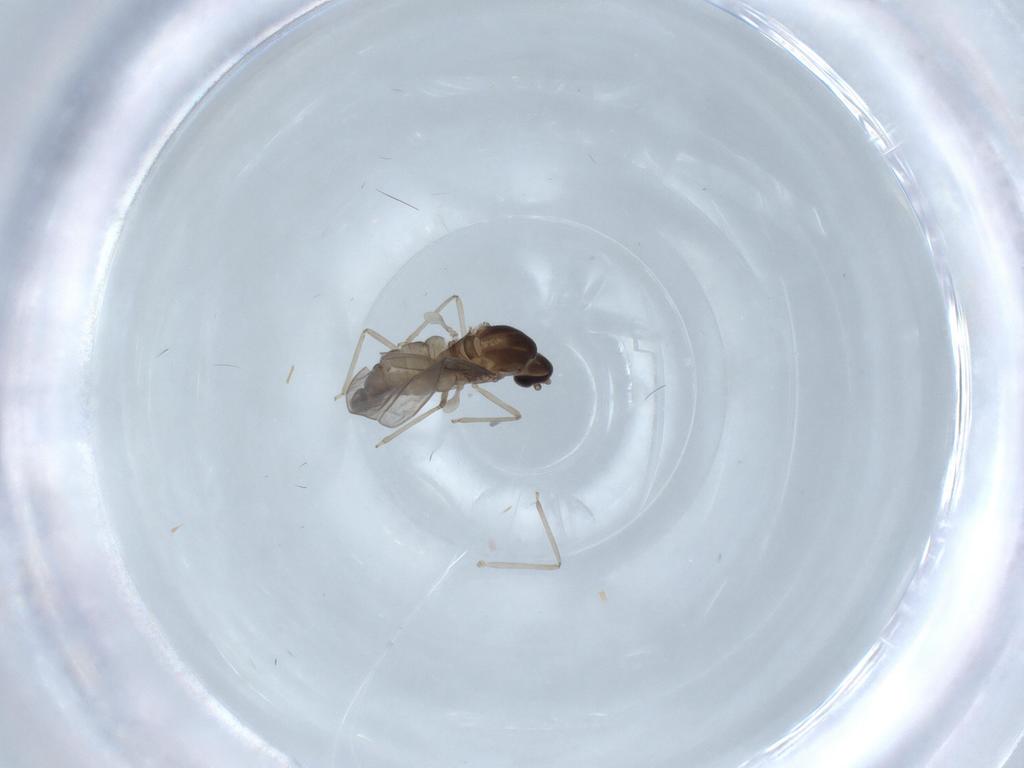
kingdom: Animalia
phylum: Arthropoda
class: Insecta
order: Diptera
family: Cecidomyiidae
